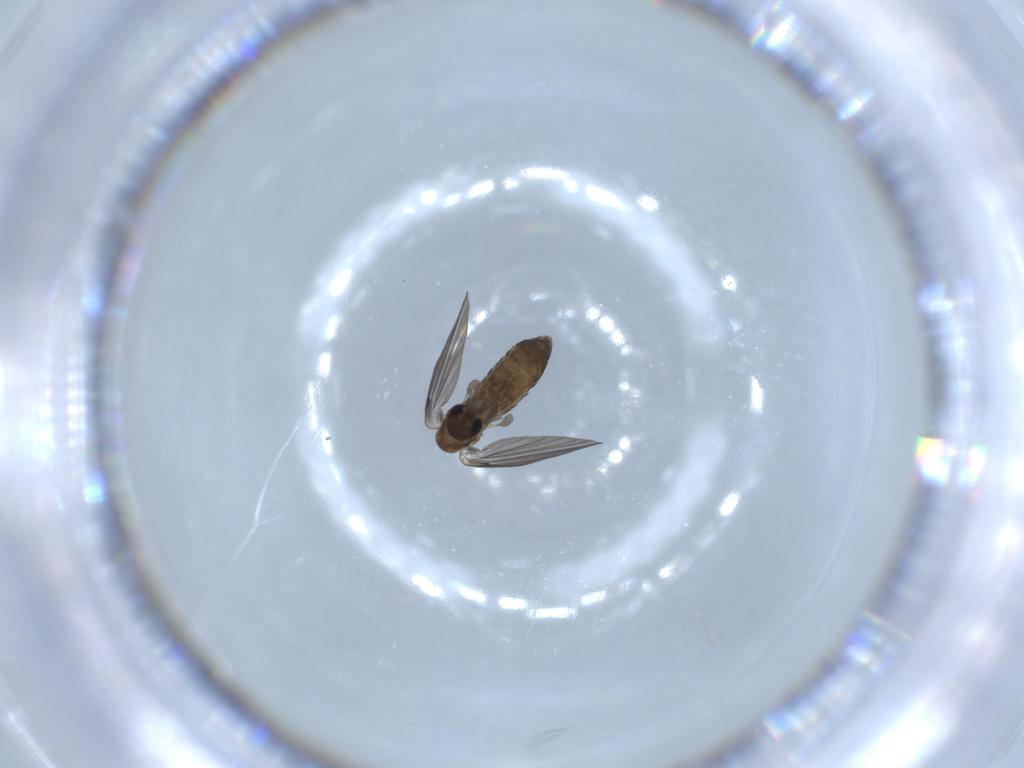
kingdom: Animalia
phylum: Arthropoda
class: Insecta
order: Diptera
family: Psychodidae
